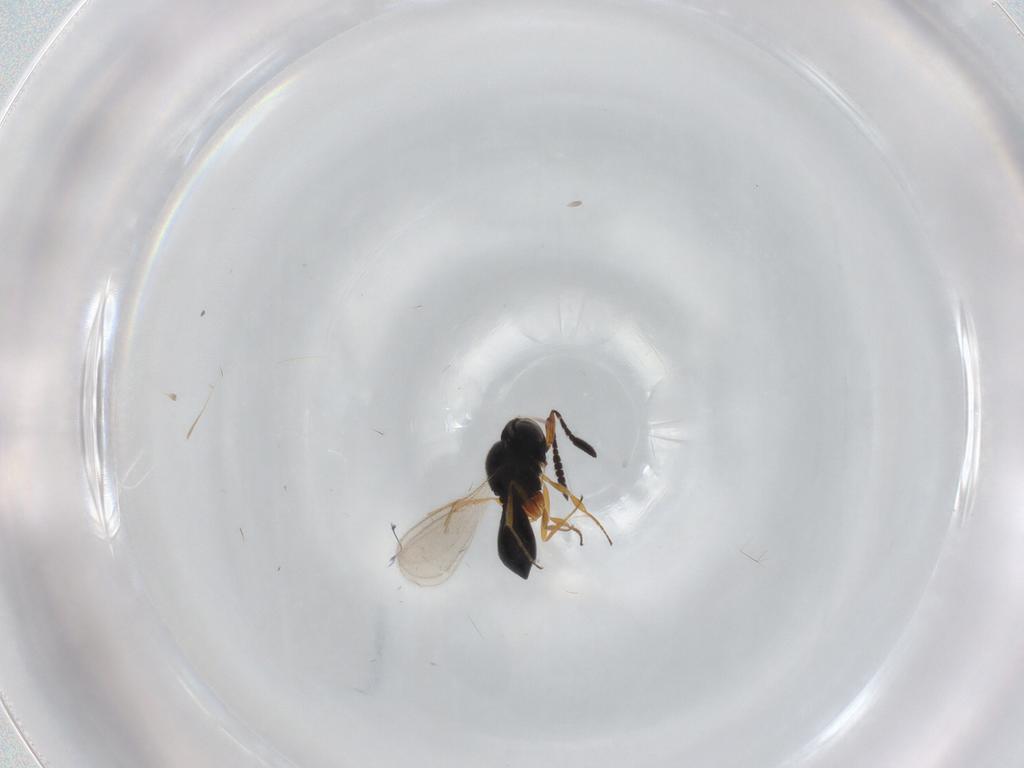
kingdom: Animalia
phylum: Arthropoda
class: Insecta
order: Hymenoptera
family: Scelionidae
